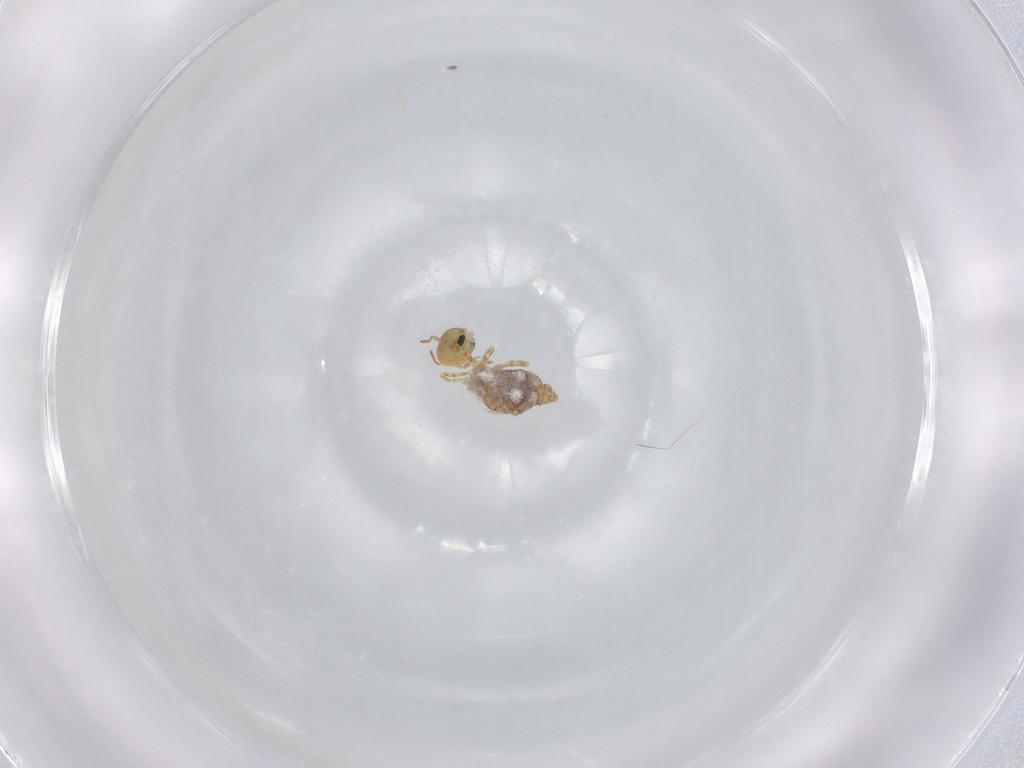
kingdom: Animalia
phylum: Arthropoda
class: Collembola
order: Symphypleona
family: Bourletiellidae
